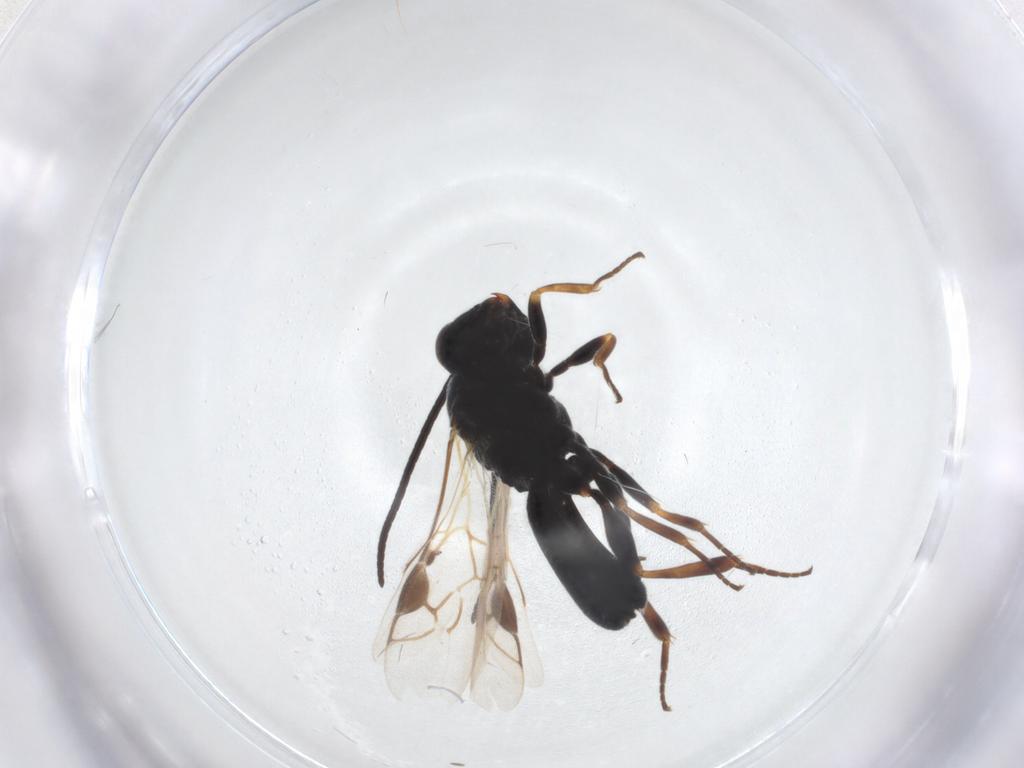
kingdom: Animalia
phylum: Arthropoda
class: Insecta
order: Hymenoptera
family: Braconidae
